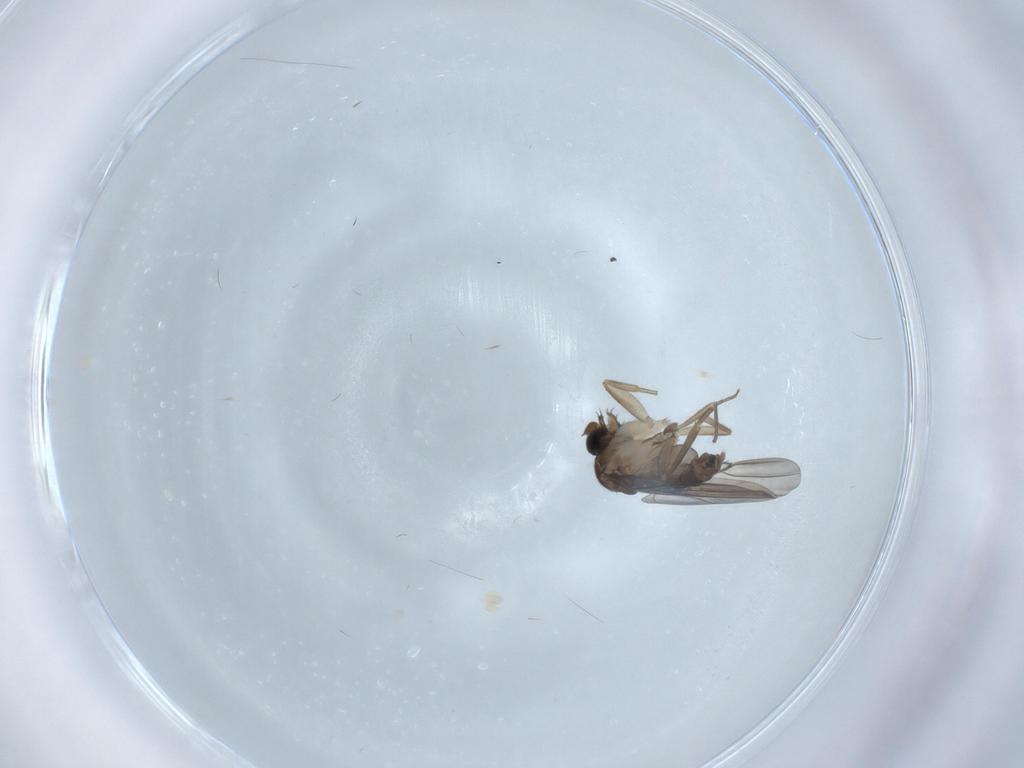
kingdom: Animalia
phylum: Arthropoda
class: Insecta
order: Diptera
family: Phoridae
